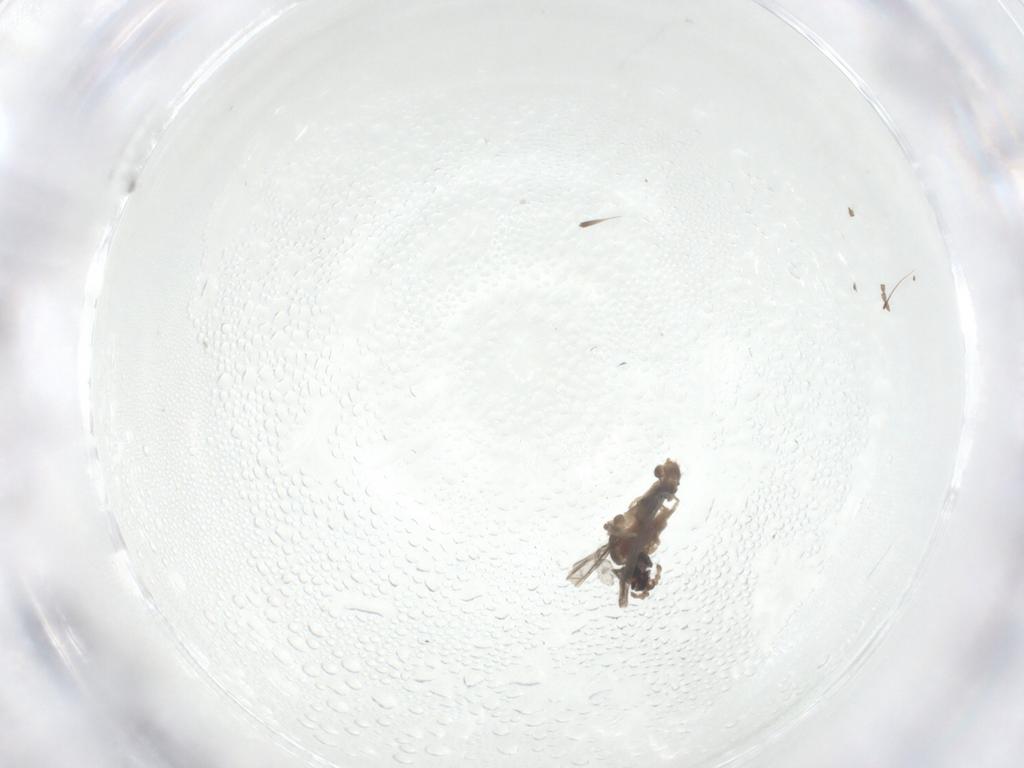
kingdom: Animalia
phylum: Arthropoda
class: Insecta
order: Diptera
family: Cecidomyiidae
